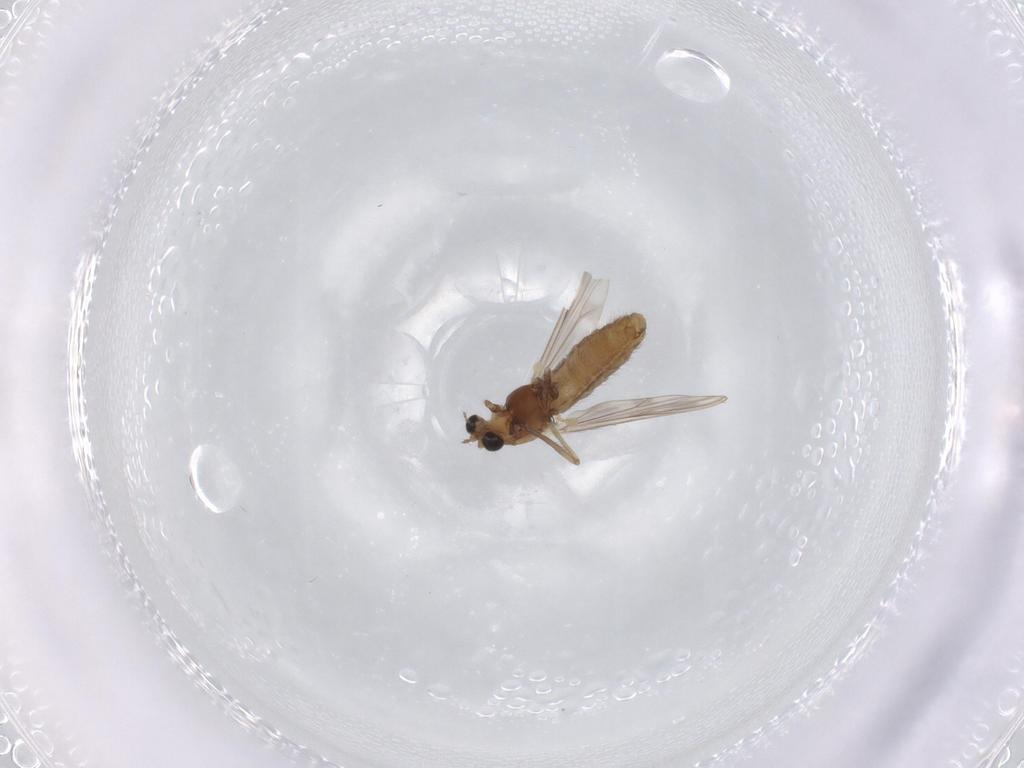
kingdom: Animalia
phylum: Arthropoda
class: Insecta
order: Diptera
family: Chironomidae
